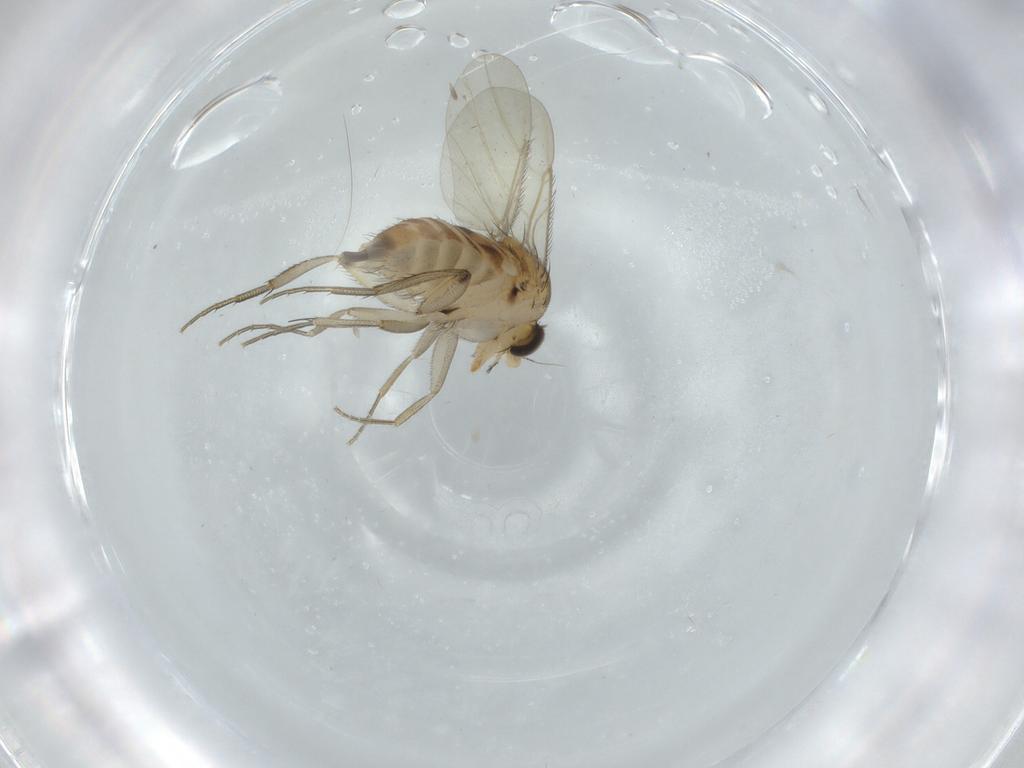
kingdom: Animalia
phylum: Arthropoda
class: Insecta
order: Diptera
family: Phoridae
